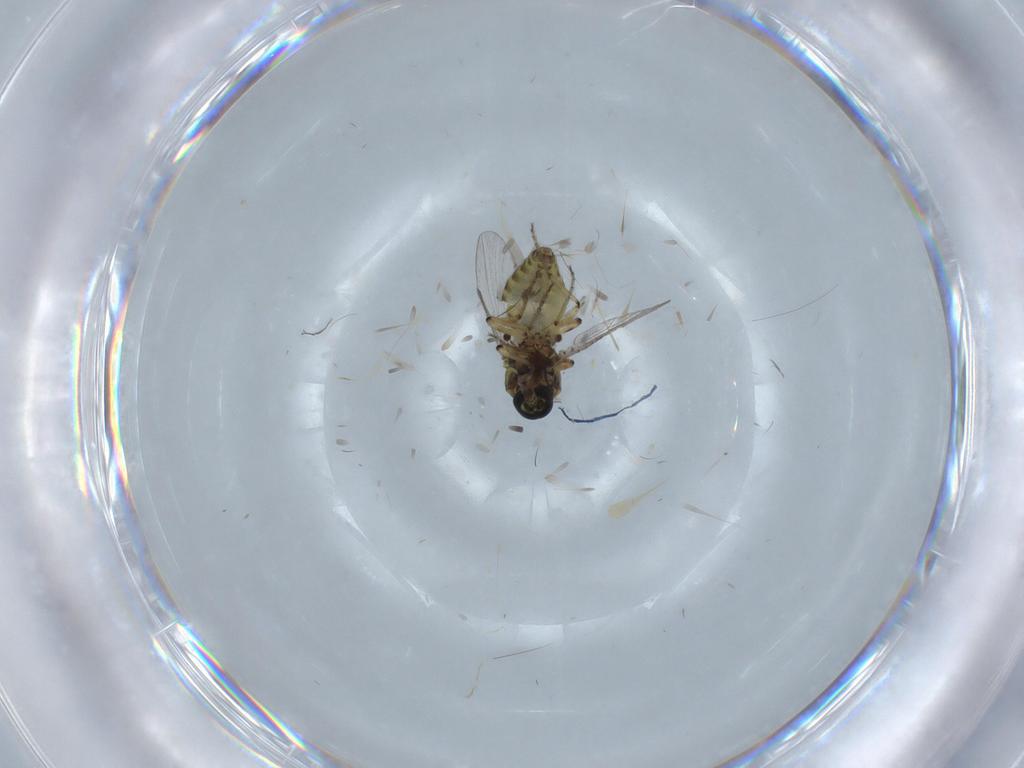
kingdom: Animalia
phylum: Arthropoda
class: Insecta
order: Diptera
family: Ceratopogonidae
